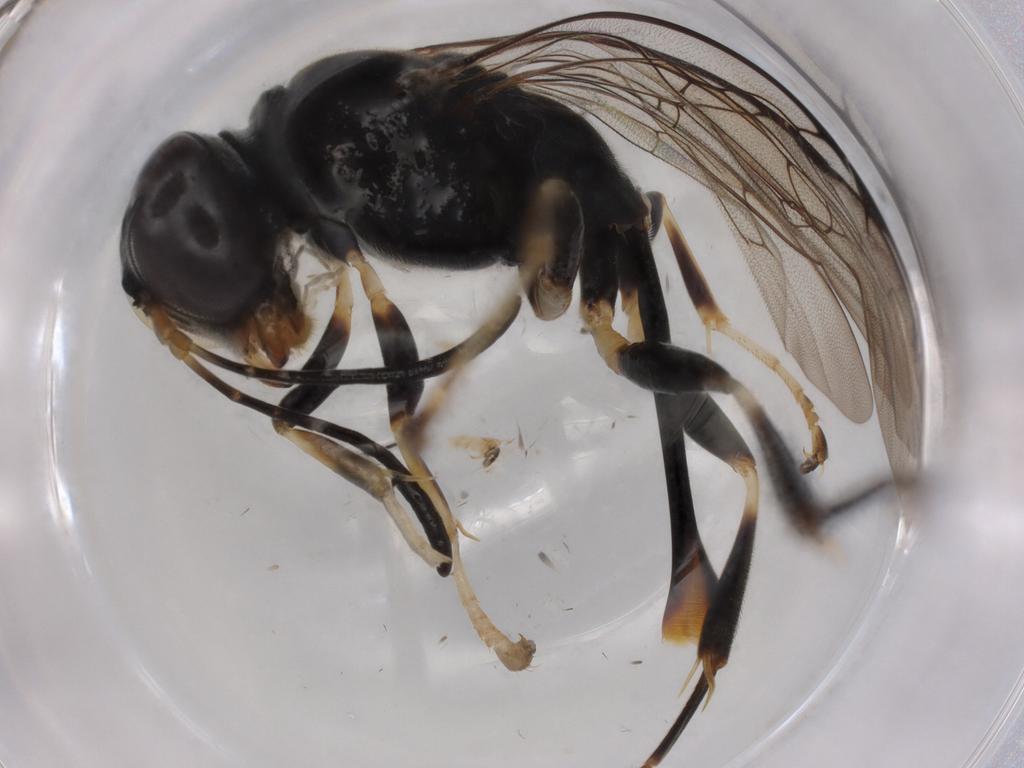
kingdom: Animalia
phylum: Arthropoda
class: Insecta
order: Hymenoptera
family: Crabronidae
